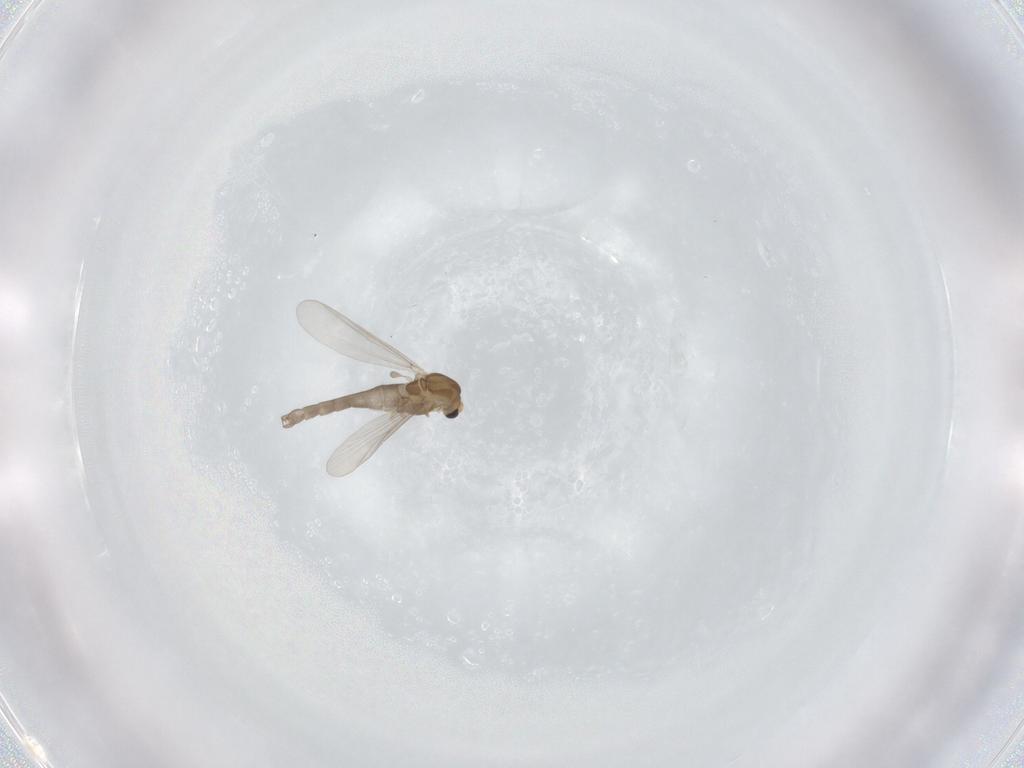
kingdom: Animalia
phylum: Arthropoda
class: Insecta
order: Diptera
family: Chironomidae
